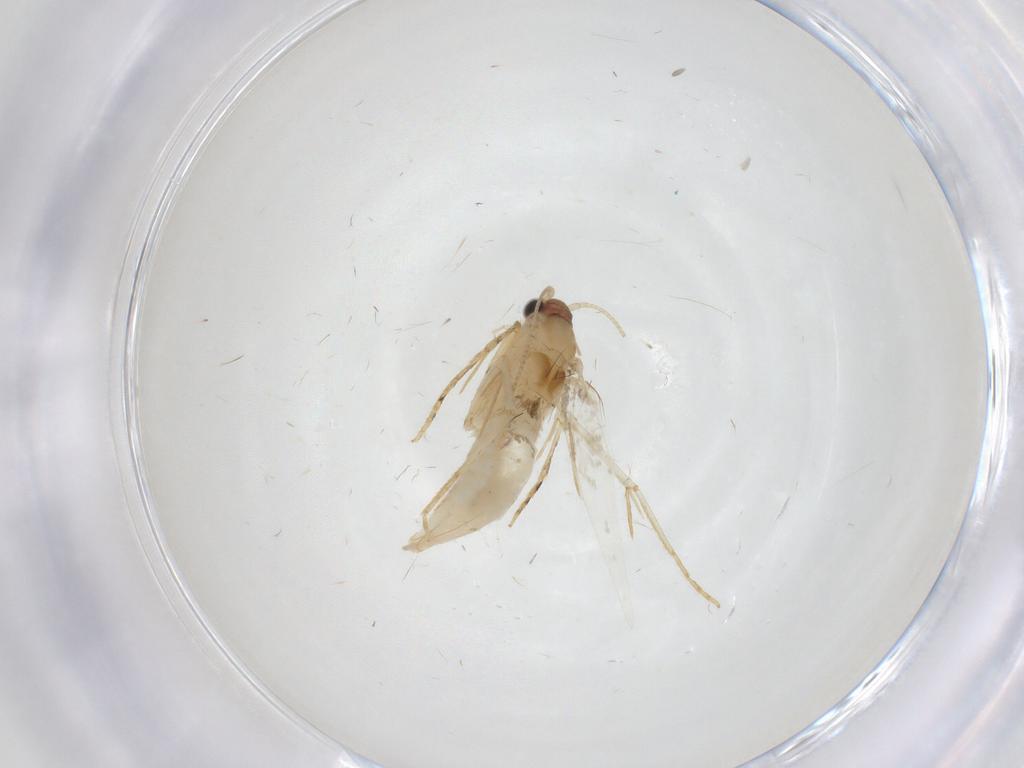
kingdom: Animalia
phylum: Arthropoda
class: Insecta
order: Lepidoptera
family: Tineidae
